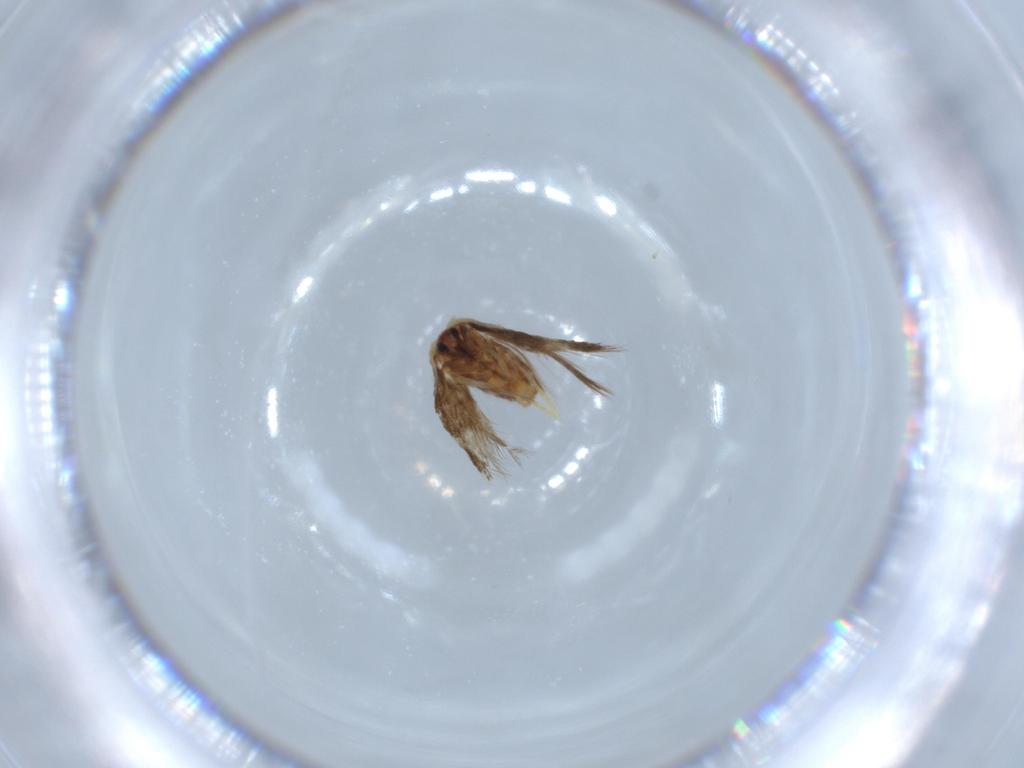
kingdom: Animalia
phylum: Arthropoda
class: Insecta
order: Lepidoptera
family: Nepticulidae
